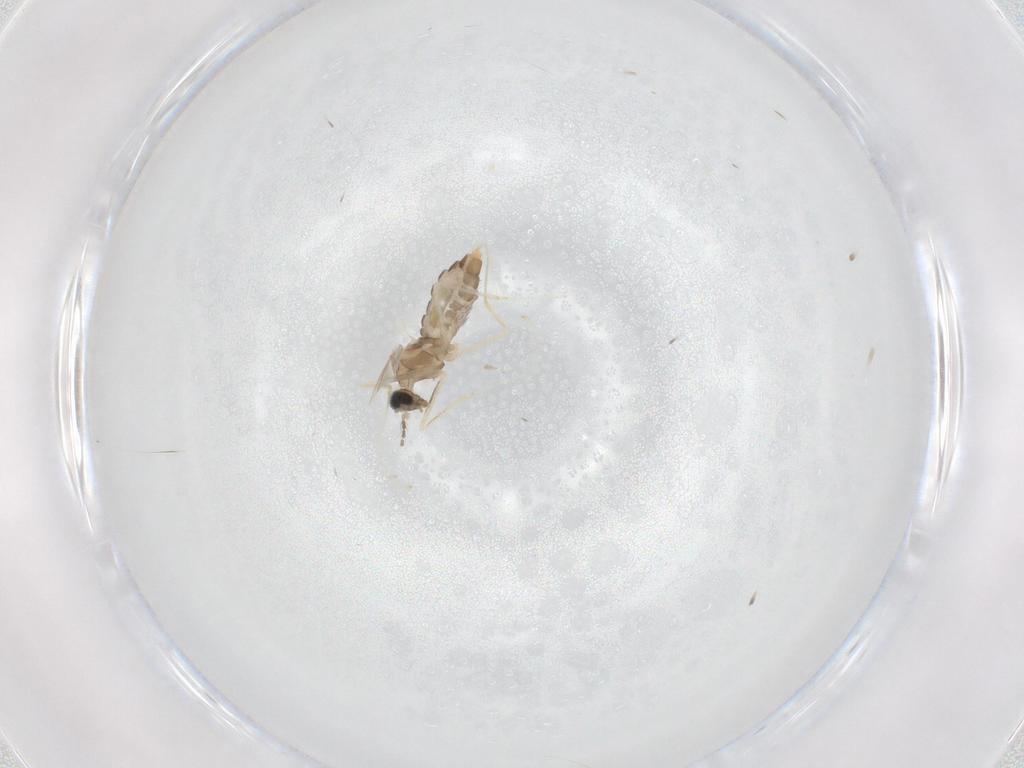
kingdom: Animalia
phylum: Arthropoda
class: Insecta
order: Diptera
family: Cecidomyiidae
